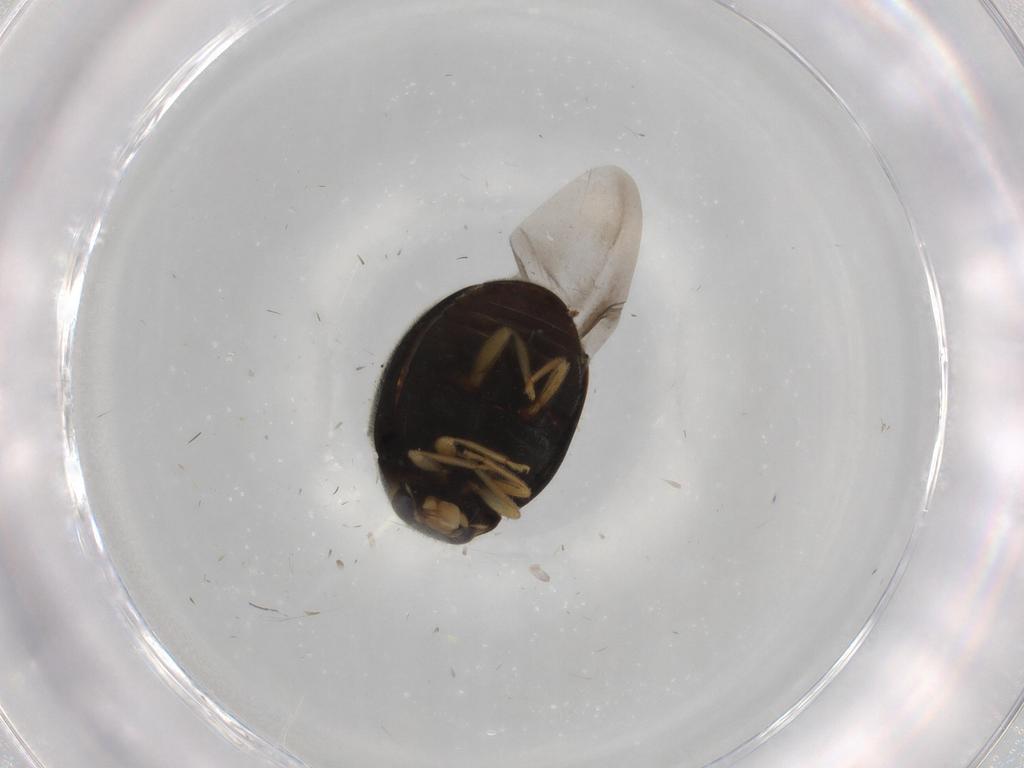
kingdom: Animalia
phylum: Arthropoda
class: Insecta
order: Coleoptera
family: Coccinellidae
